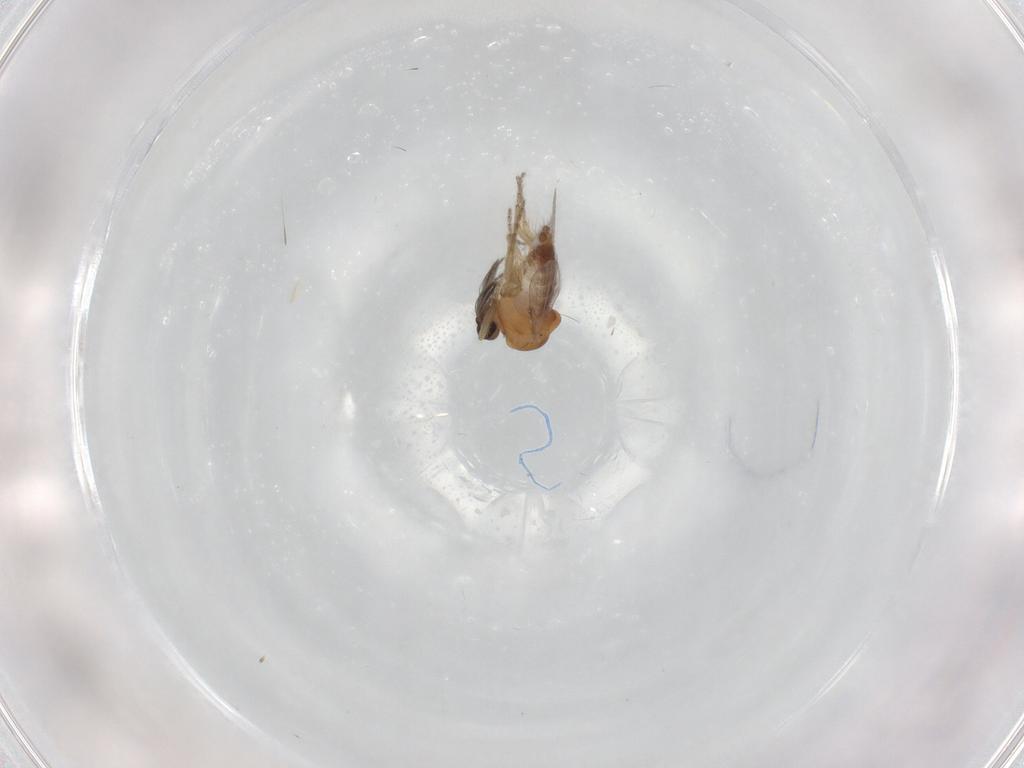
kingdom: Animalia
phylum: Arthropoda
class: Insecta
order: Diptera
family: Ceratopogonidae
